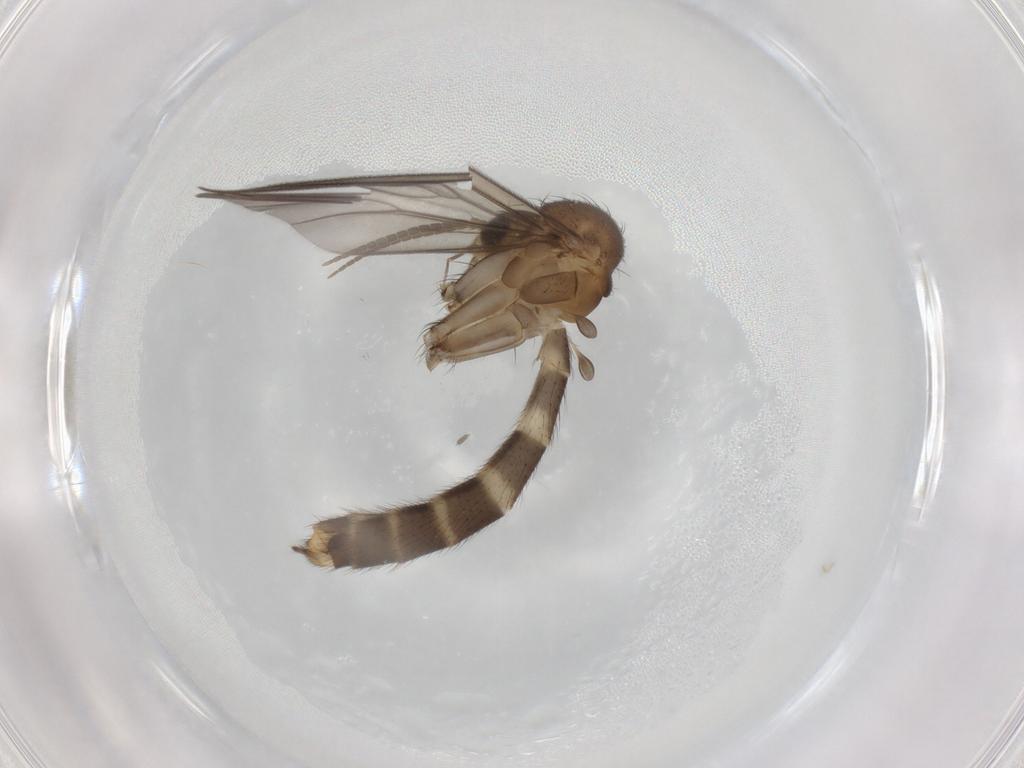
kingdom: Animalia
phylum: Arthropoda
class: Insecta
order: Diptera
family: Mycetophilidae
